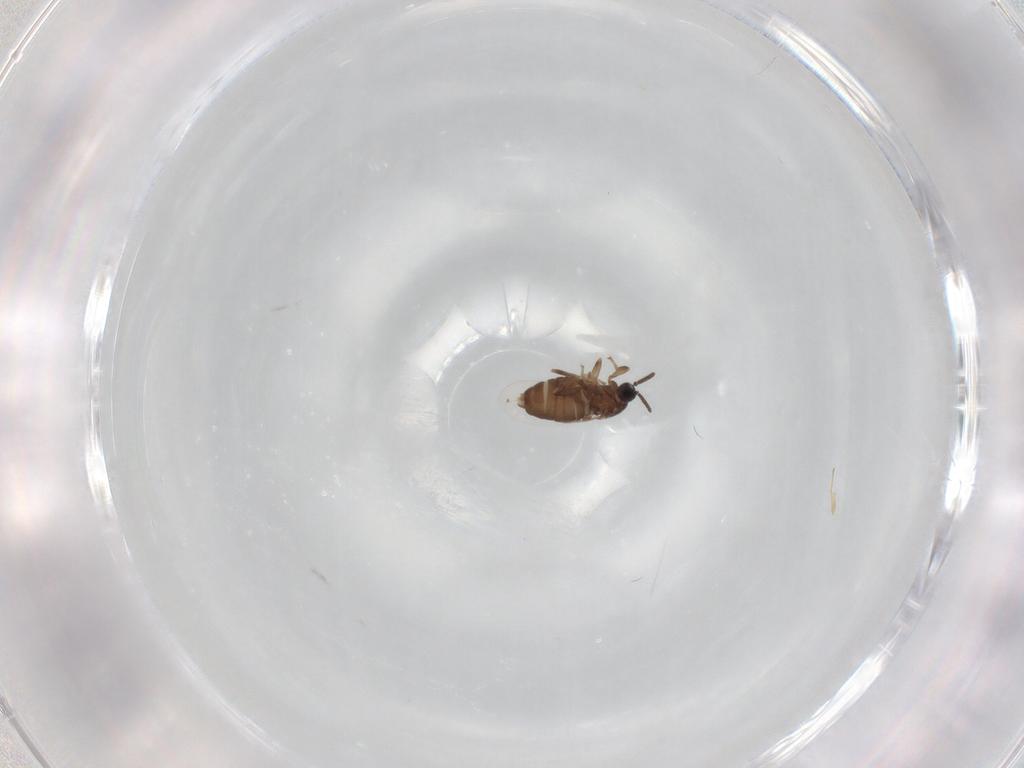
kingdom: Animalia
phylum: Arthropoda
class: Insecta
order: Diptera
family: Scatopsidae
